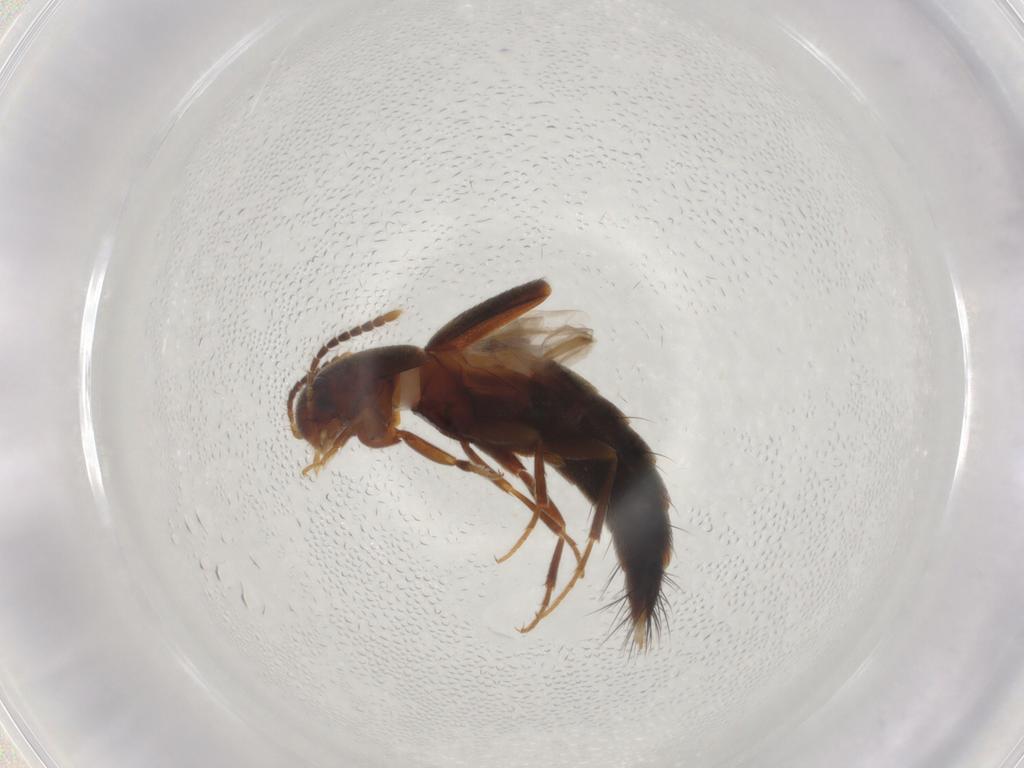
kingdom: Animalia
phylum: Arthropoda
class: Insecta
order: Coleoptera
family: Staphylinidae
